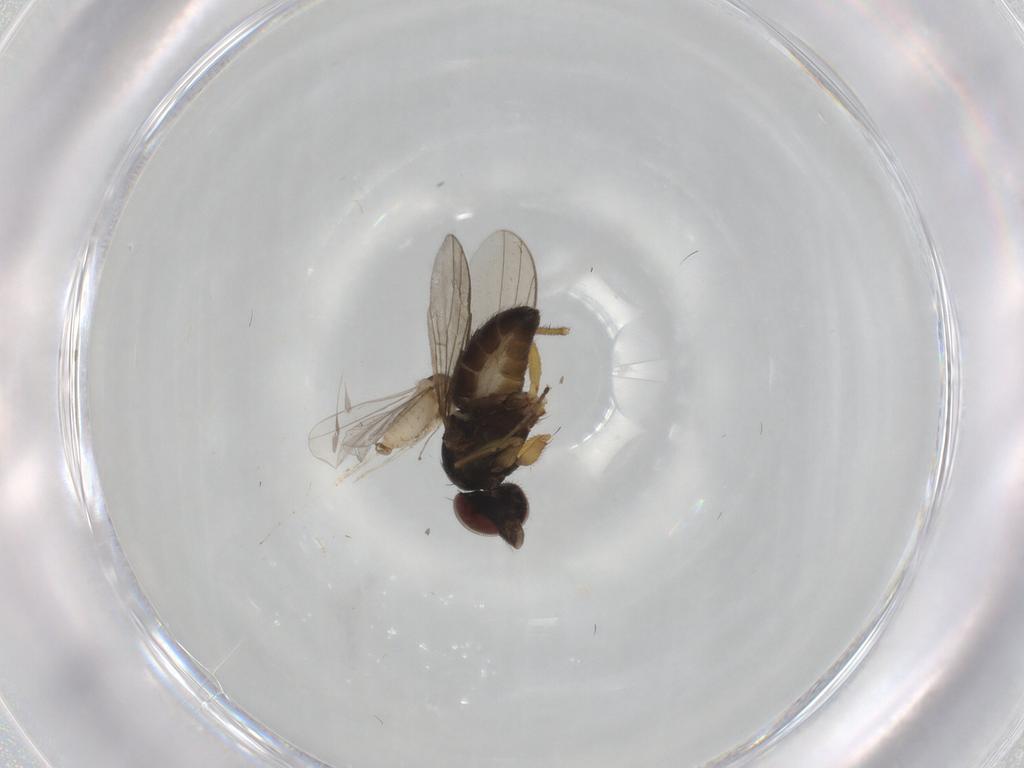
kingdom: Animalia
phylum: Arthropoda
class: Insecta
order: Diptera
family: Dolichopodidae
